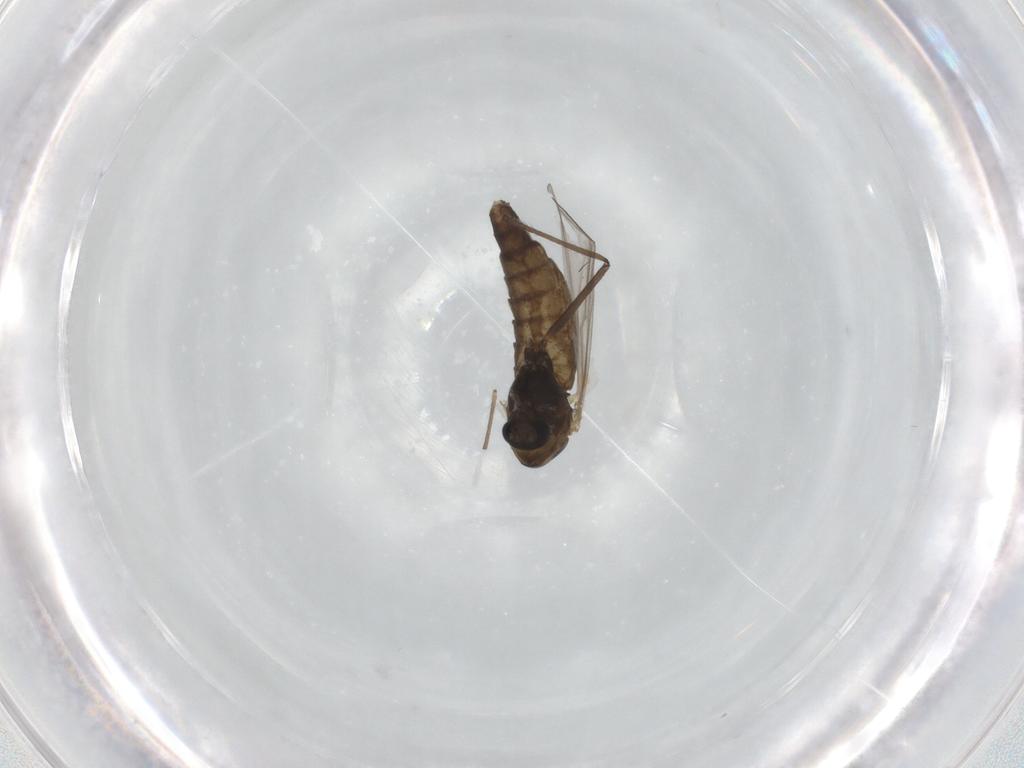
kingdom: Animalia
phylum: Arthropoda
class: Insecta
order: Diptera
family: Chironomidae
